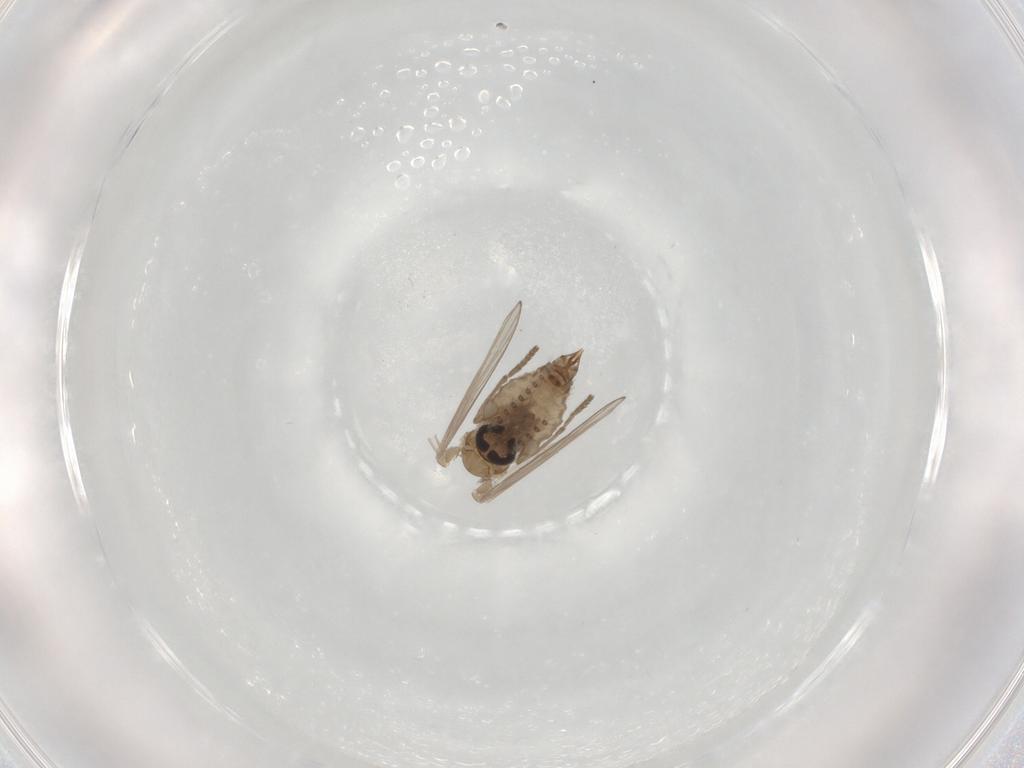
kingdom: Animalia
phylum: Arthropoda
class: Insecta
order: Diptera
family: Psychodidae
